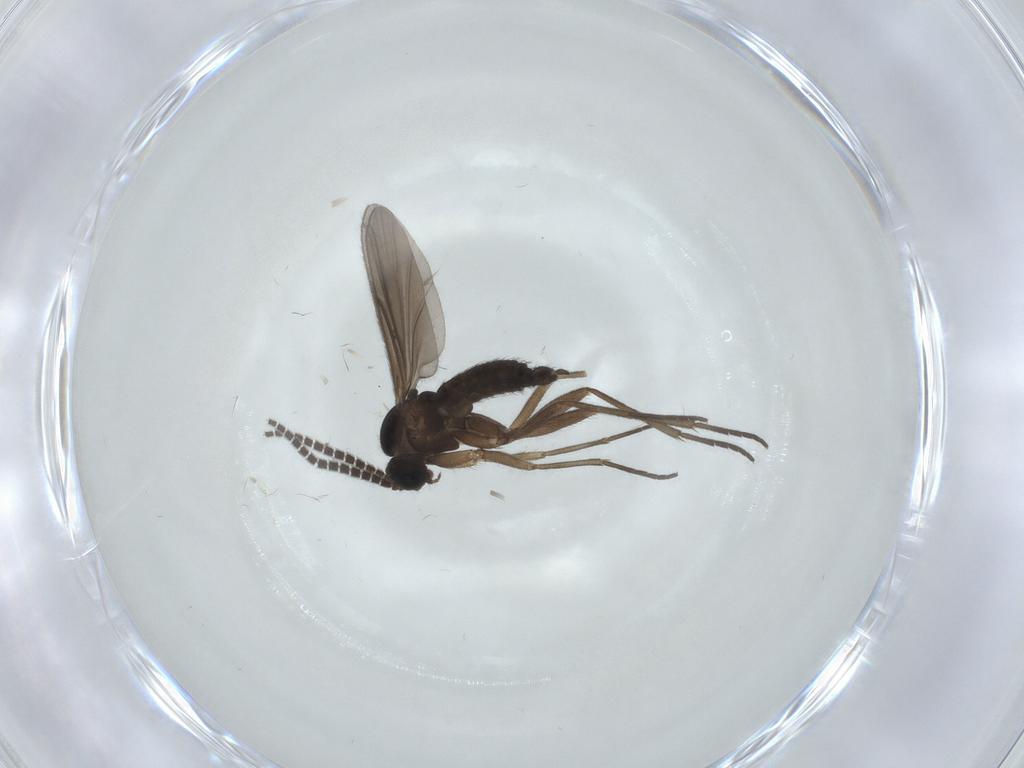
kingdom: Animalia
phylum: Arthropoda
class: Insecta
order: Diptera
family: Sciaridae
